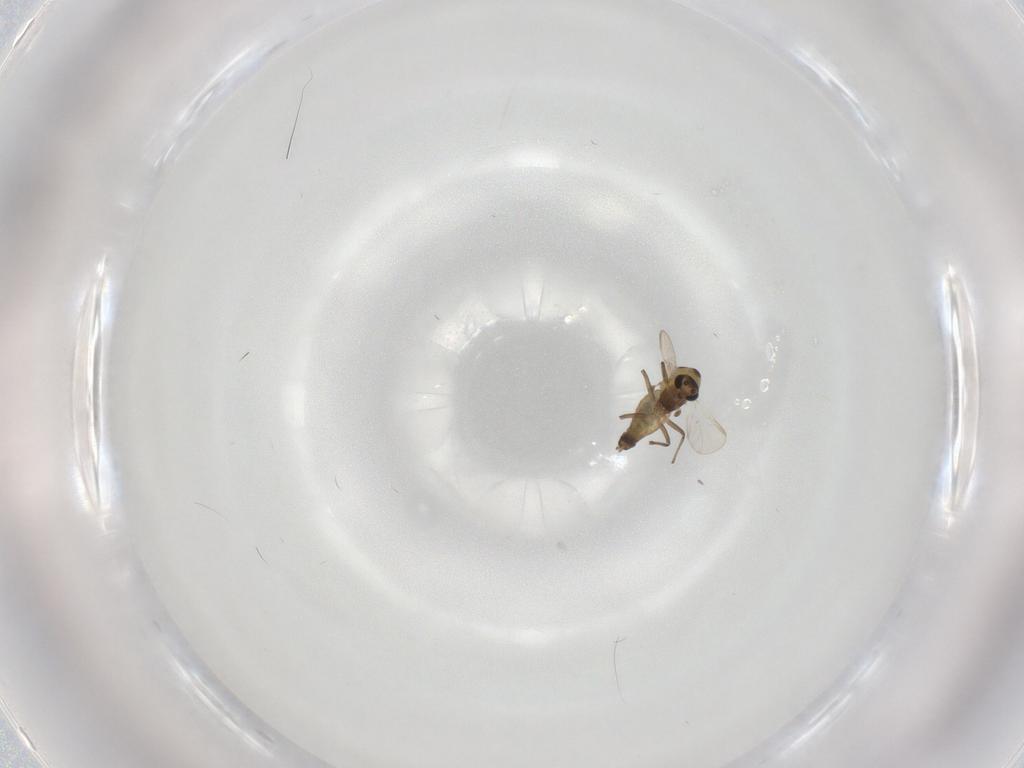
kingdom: Animalia
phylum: Arthropoda
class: Insecta
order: Diptera
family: Chironomidae
